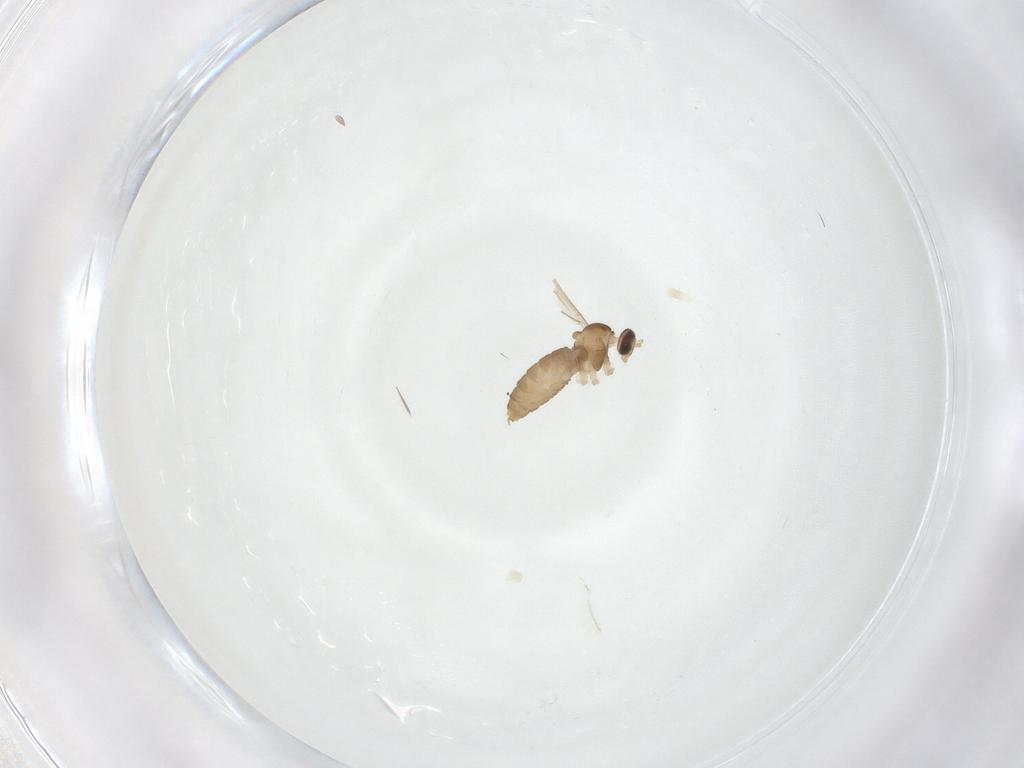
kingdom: Animalia
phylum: Arthropoda
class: Insecta
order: Diptera
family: Cecidomyiidae
